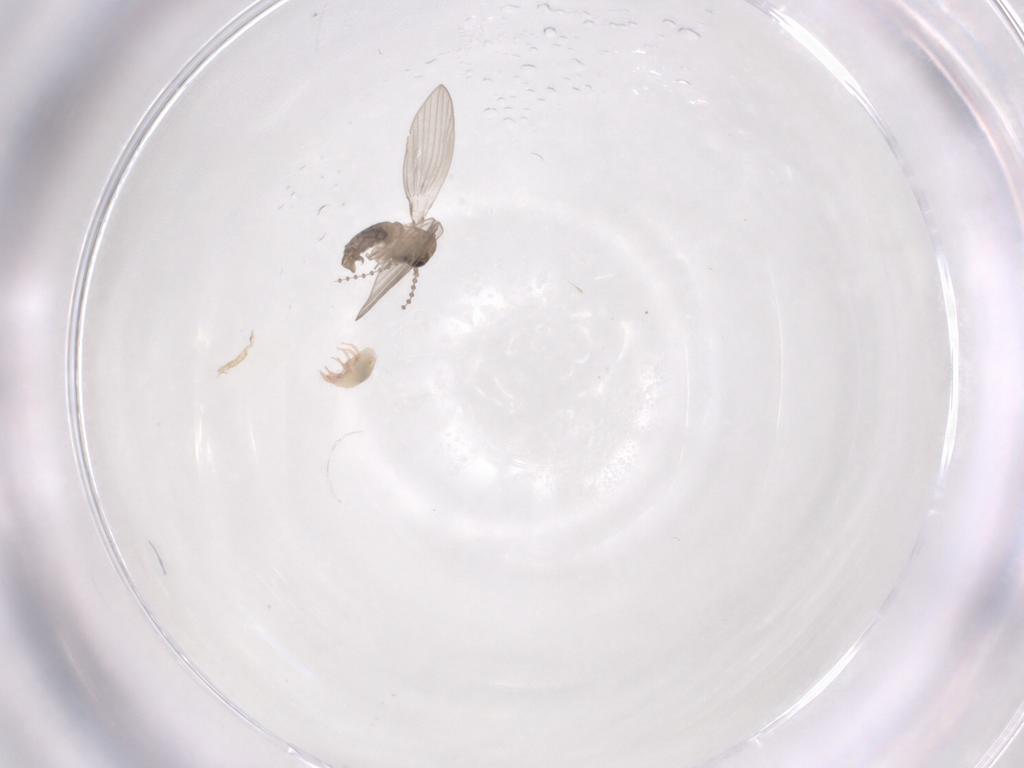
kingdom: Animalia
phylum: Arthropoda
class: Insecta
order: Diptera
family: Psychodidae
